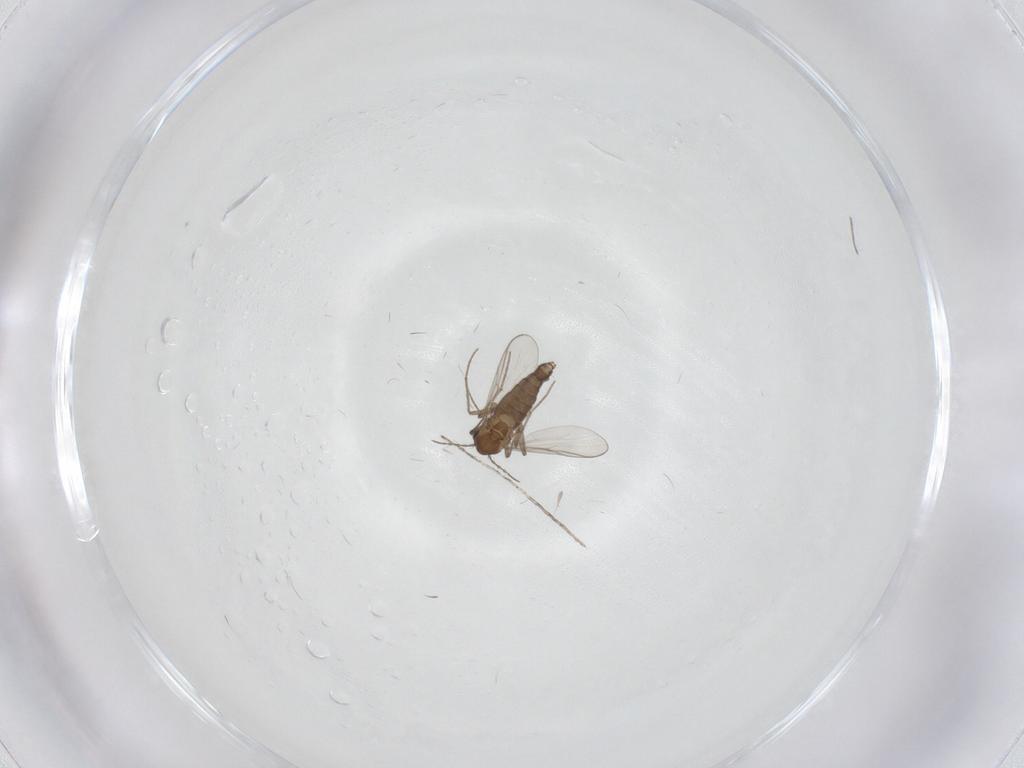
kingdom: Animalia
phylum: Arthropoda
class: Insecta
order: Diptera
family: Chironomidae
